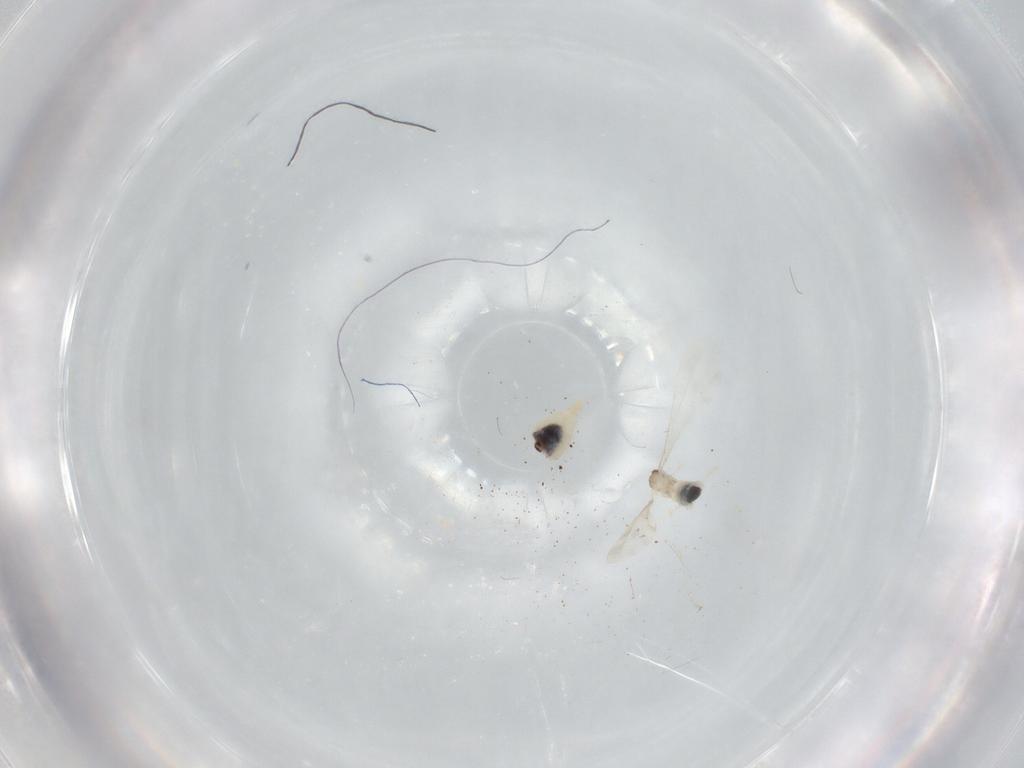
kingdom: Animalia
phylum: Arthropoda
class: Insecta
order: Diptera
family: Cecidomyiidae
